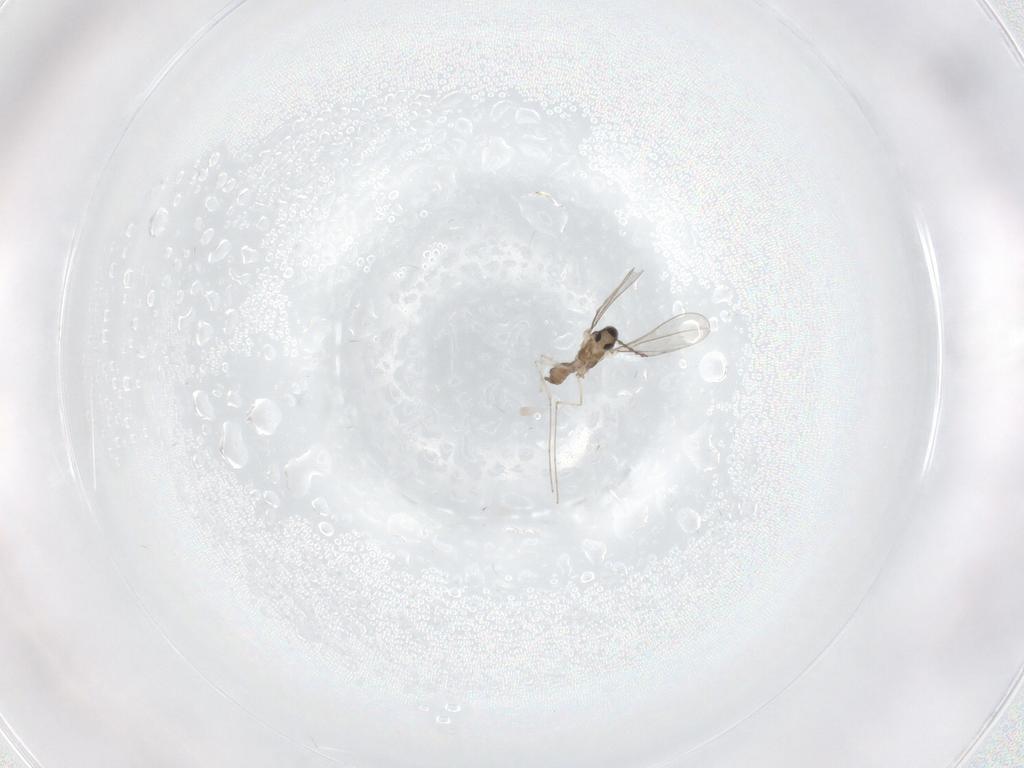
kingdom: Animalia
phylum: Arthropoda
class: Insecta
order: Diptera
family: Cecidomyiidae
